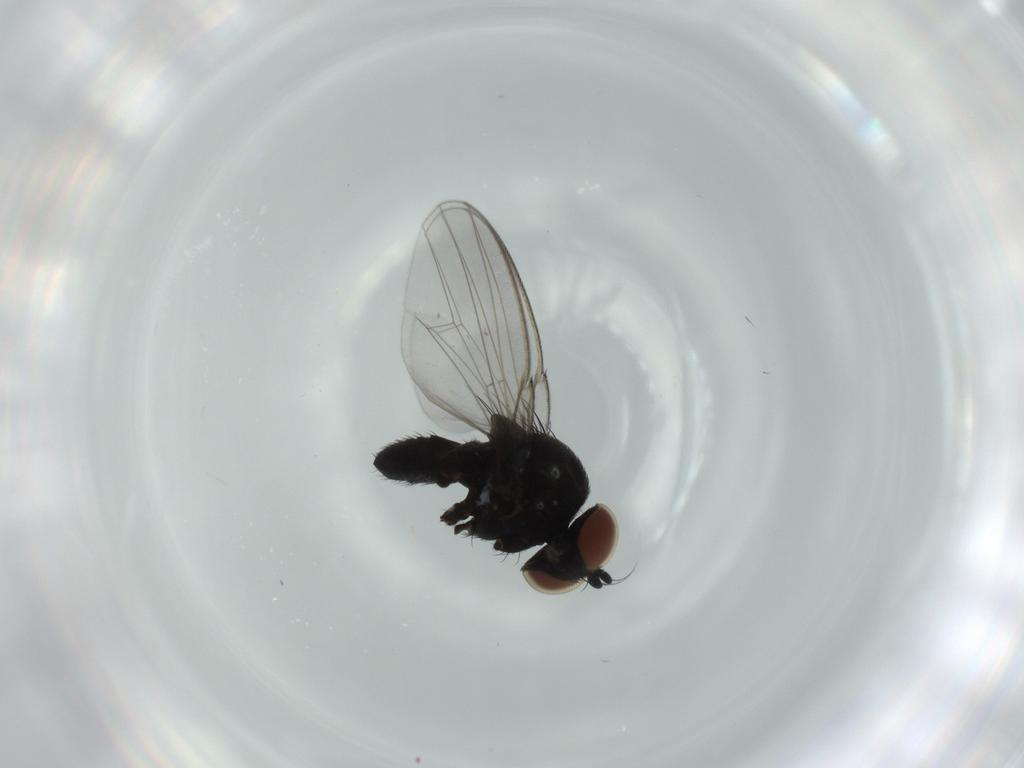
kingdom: Animalia
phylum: Arthropoda
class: Insecta
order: Diptera
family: Milichiidae
